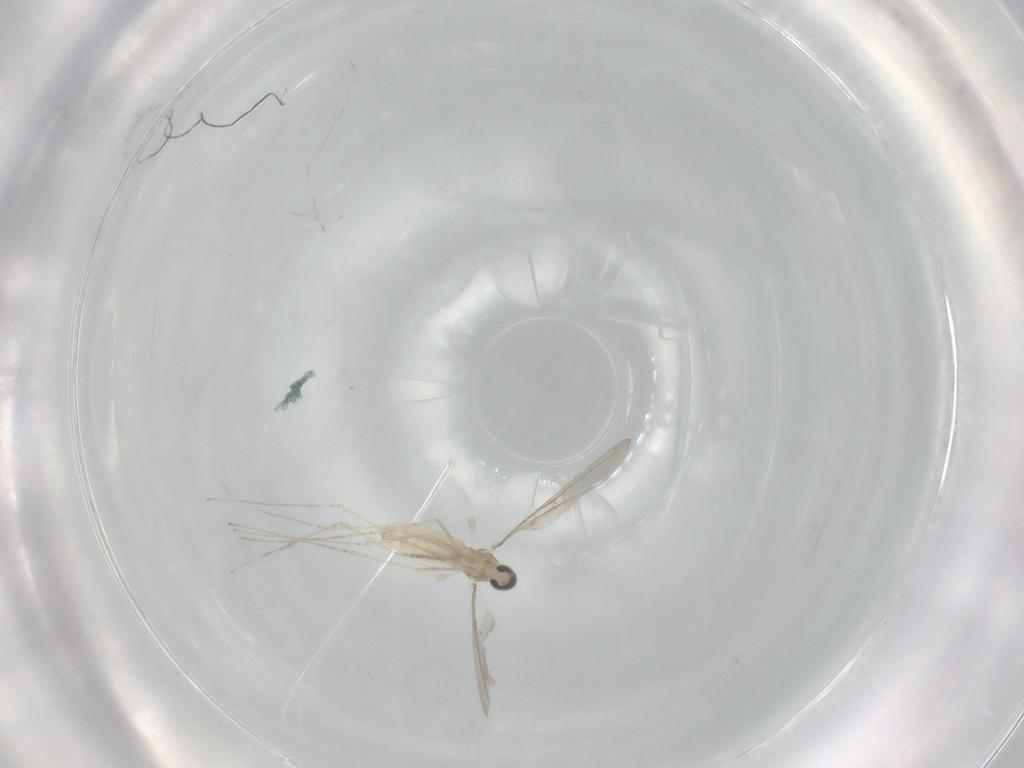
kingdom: Animalia
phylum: Arthropoda
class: Insecta
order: Diptera
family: Cecidomyiidae
